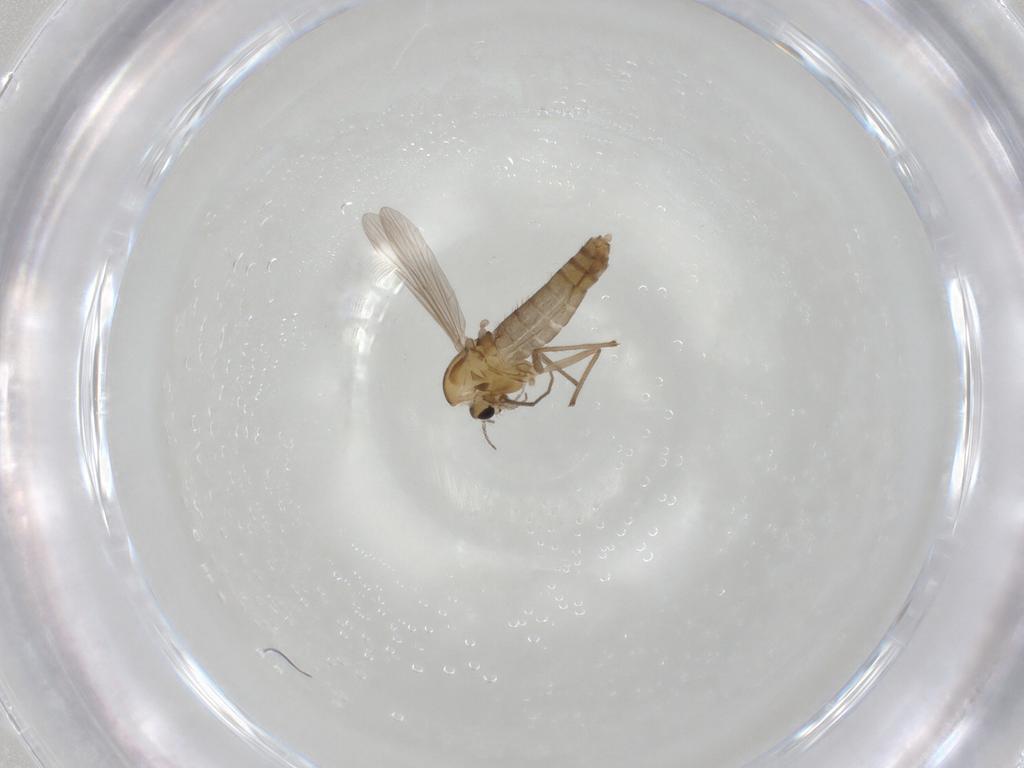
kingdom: Animalia
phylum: Arthropoda
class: Insecta
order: Diptera
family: Chironomidae
